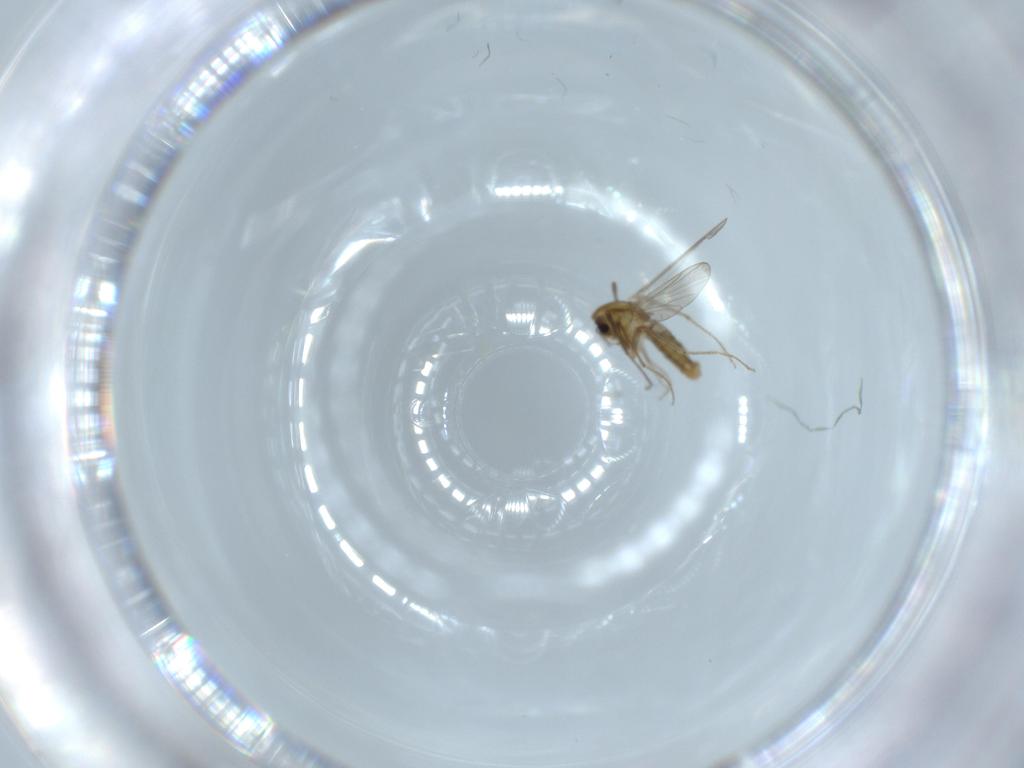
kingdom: Animalia
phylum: Arthropoda
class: Insecta
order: Diptera
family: Chironomidae
